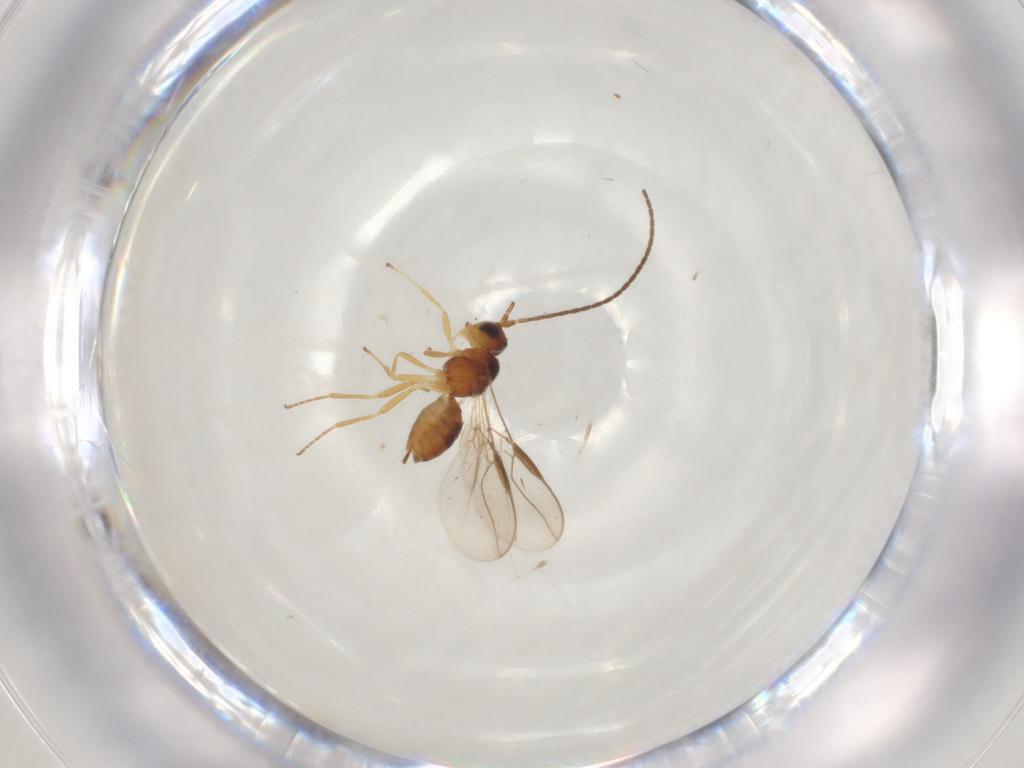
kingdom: Animalia
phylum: Arthropoda
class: Insecta
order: Hymenoptera
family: Braconidae
